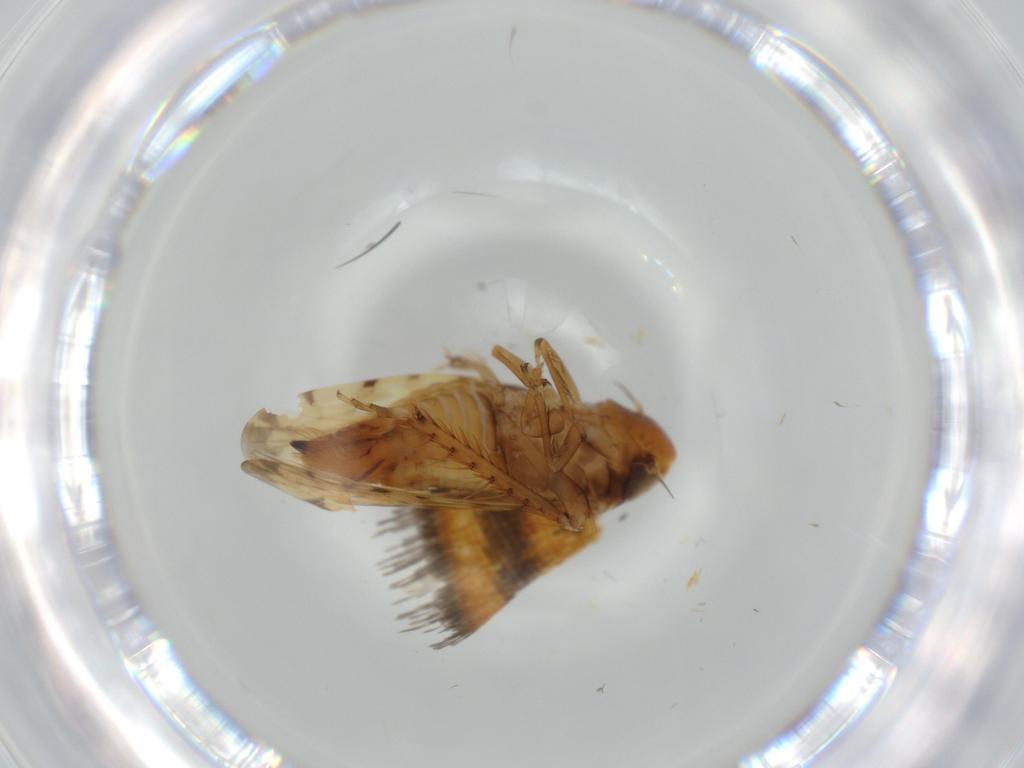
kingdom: Animalia
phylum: Arthropoda
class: Insecta
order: Hemiptera
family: Cicadellidae
